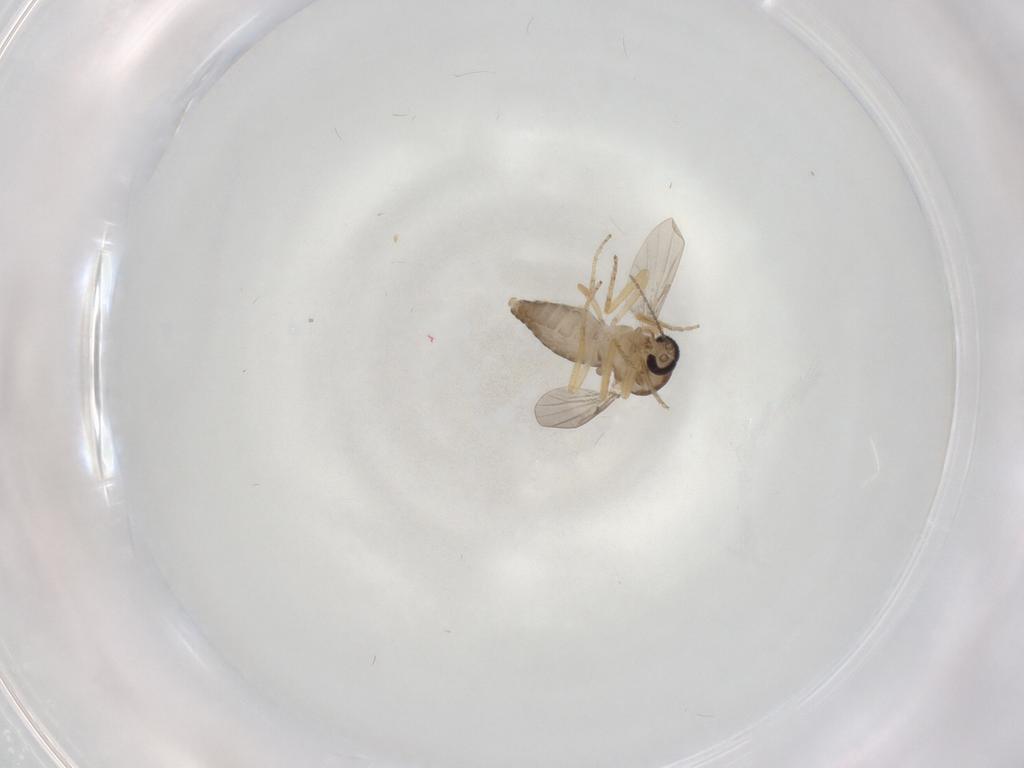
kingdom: Animalia
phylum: Arthropoda
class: Insecta
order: Diptera
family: Ceratopogonidae
